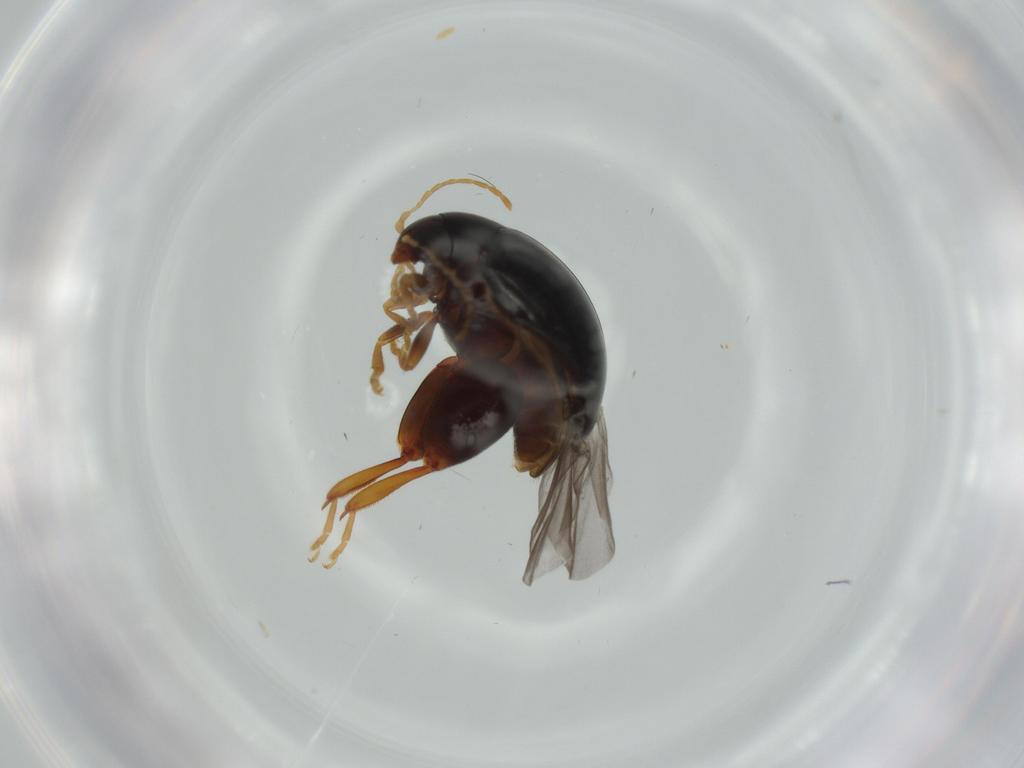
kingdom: Animalia
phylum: Arthropoda
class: Insecta
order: Coleoptera
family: Chrysomelidae
